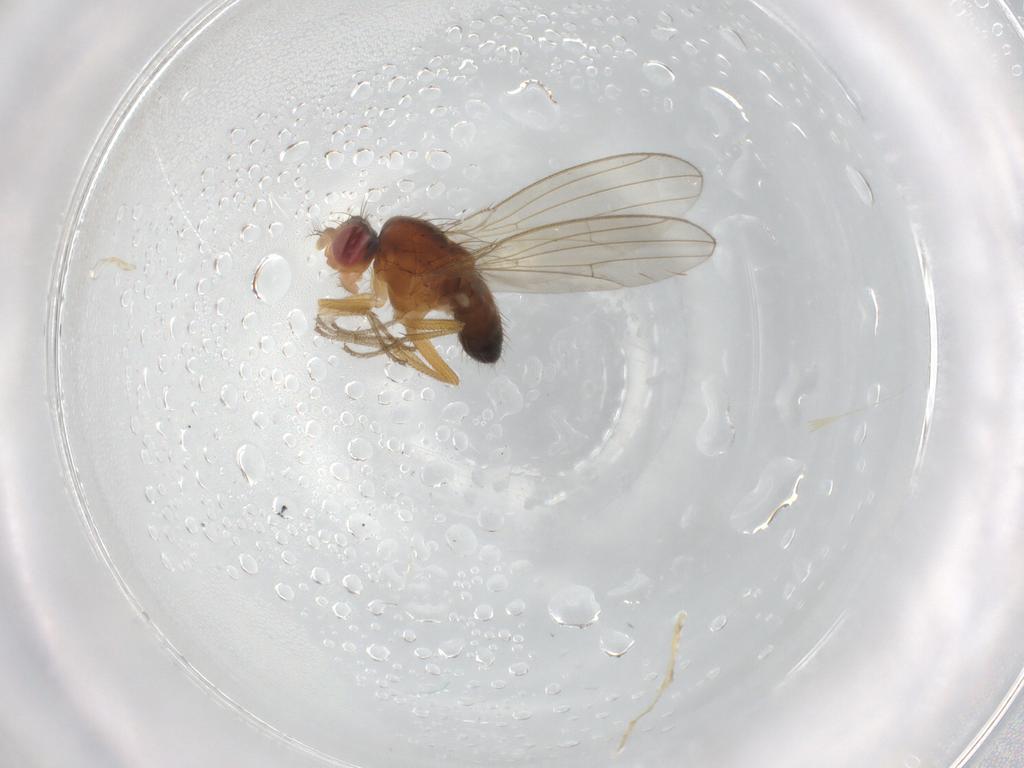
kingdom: Animalia
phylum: Arthropoda
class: Insecta
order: Diptera
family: Drosophilidae
